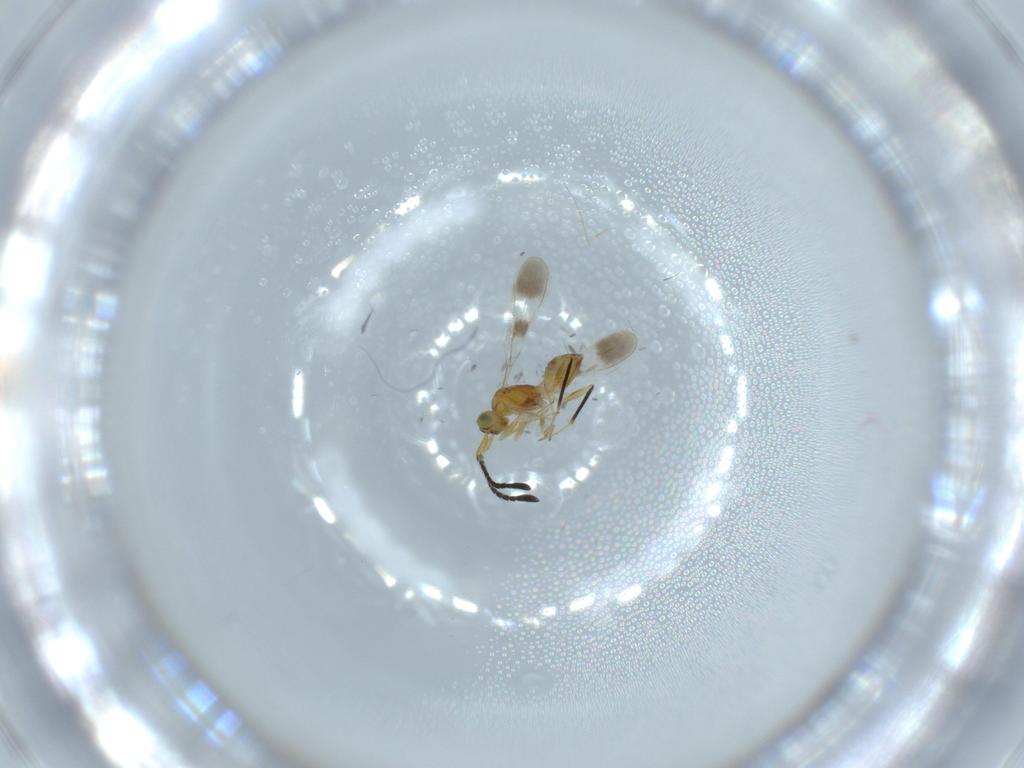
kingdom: Animalia
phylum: Arthropoda
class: Insecta
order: Hymenoptera
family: Mymaridae
